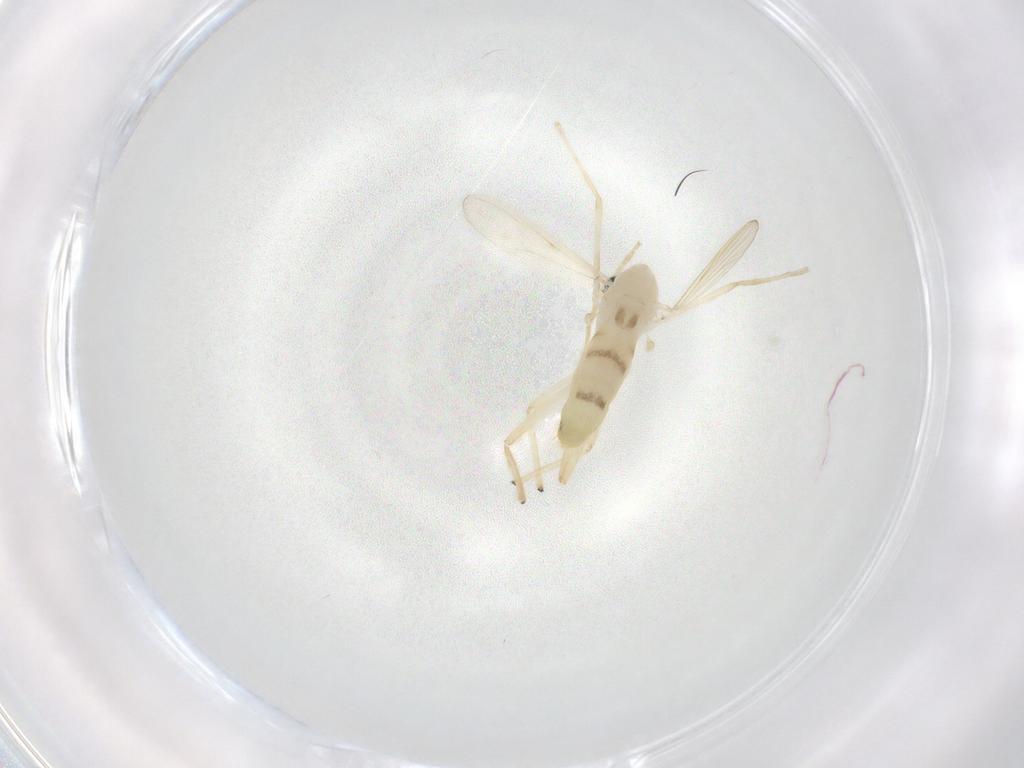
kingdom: Animalia
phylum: Arthropoda
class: Insecta
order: Diptera
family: Chironomidae
